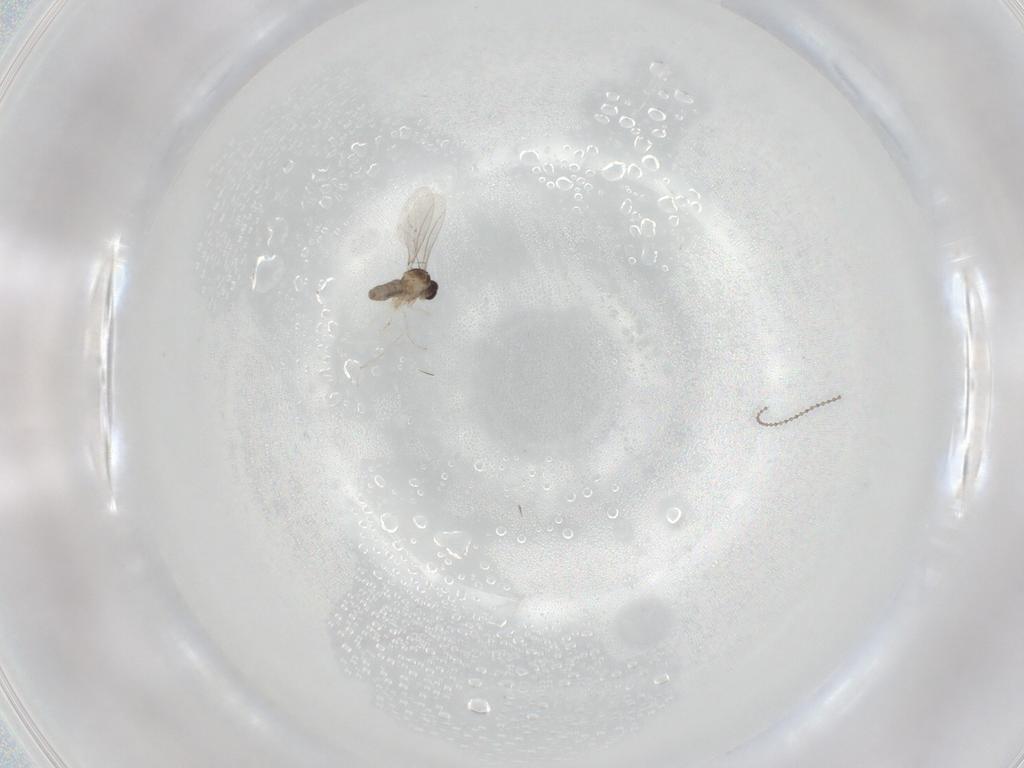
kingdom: Animalia
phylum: Arthropoda
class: Insecta
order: Diptera
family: Cecidomyiidae
